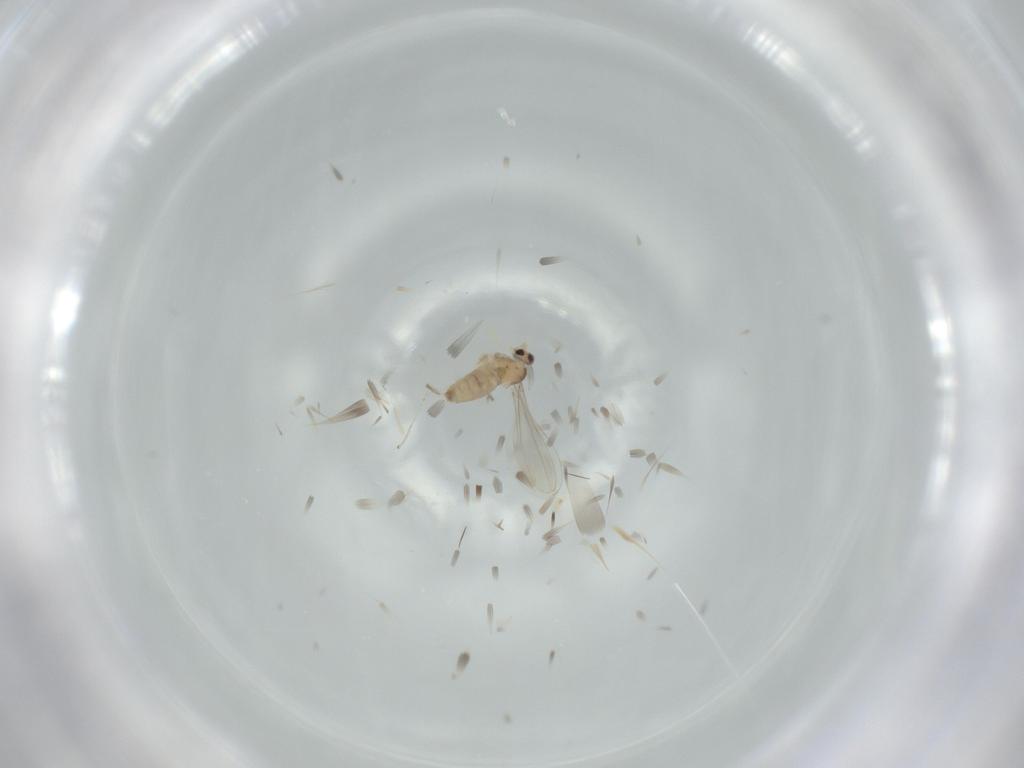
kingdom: Animalia
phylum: Arthropoda
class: Insecta
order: Diptera
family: Cecidomyiidae
